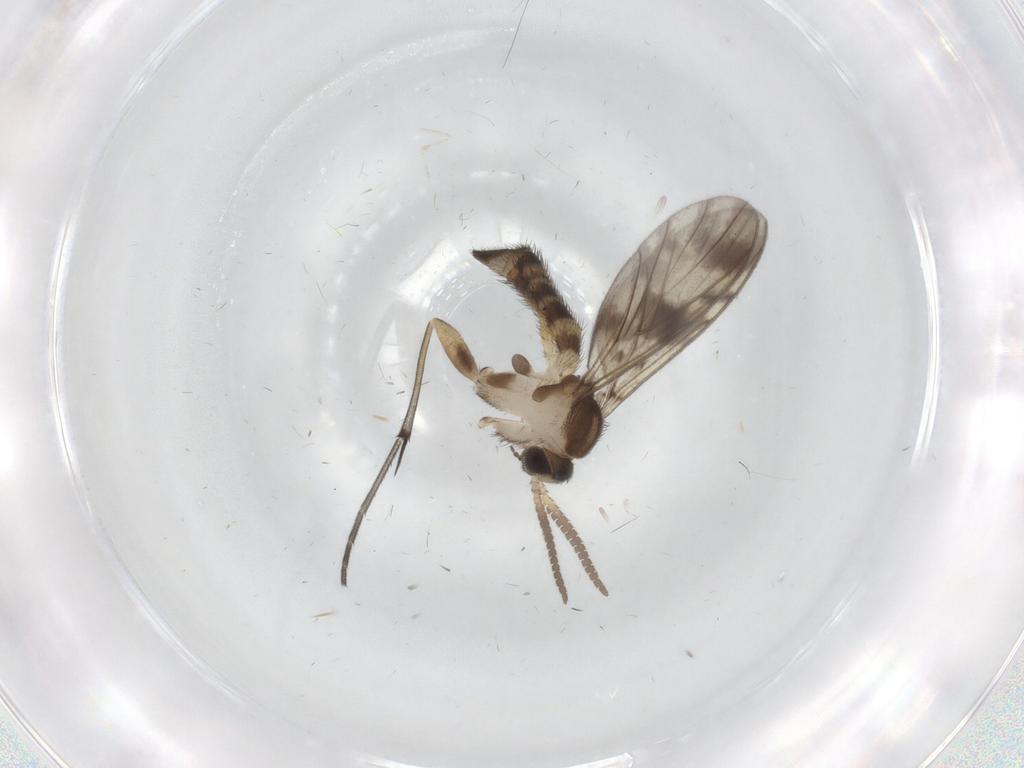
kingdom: Animalia
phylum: Arthropoda
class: Insecta
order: Diptera
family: Keroplatidae
